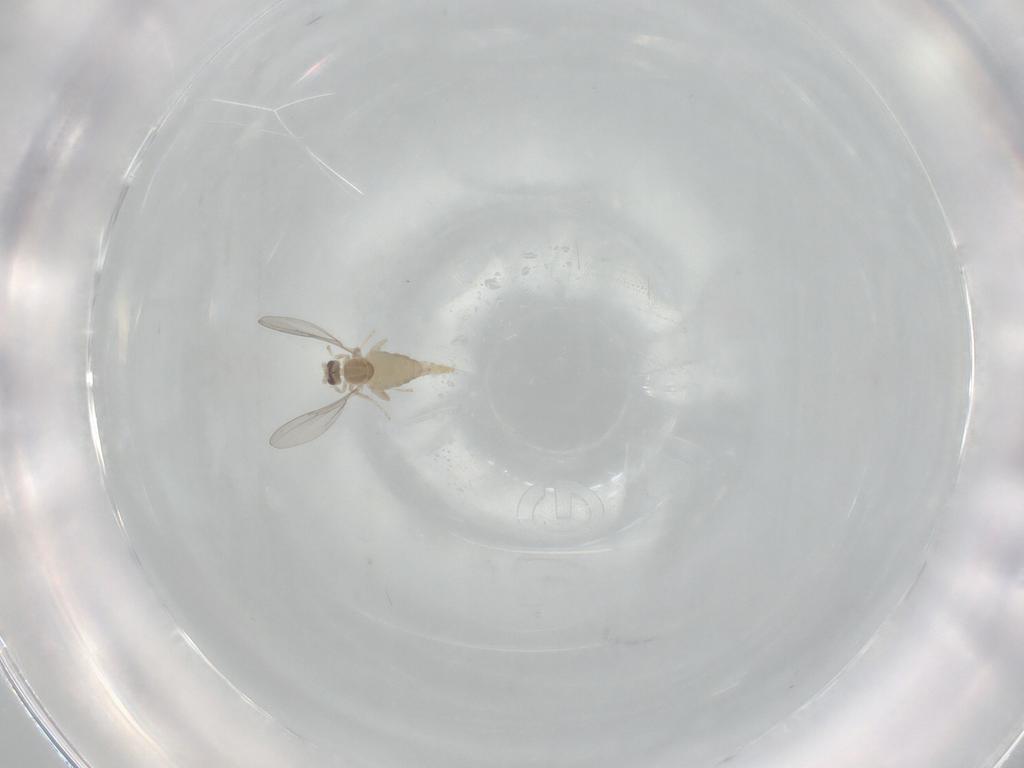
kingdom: Animalia
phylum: Arthropoda
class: Insecta
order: Diptera
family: Cecidomyiidae
